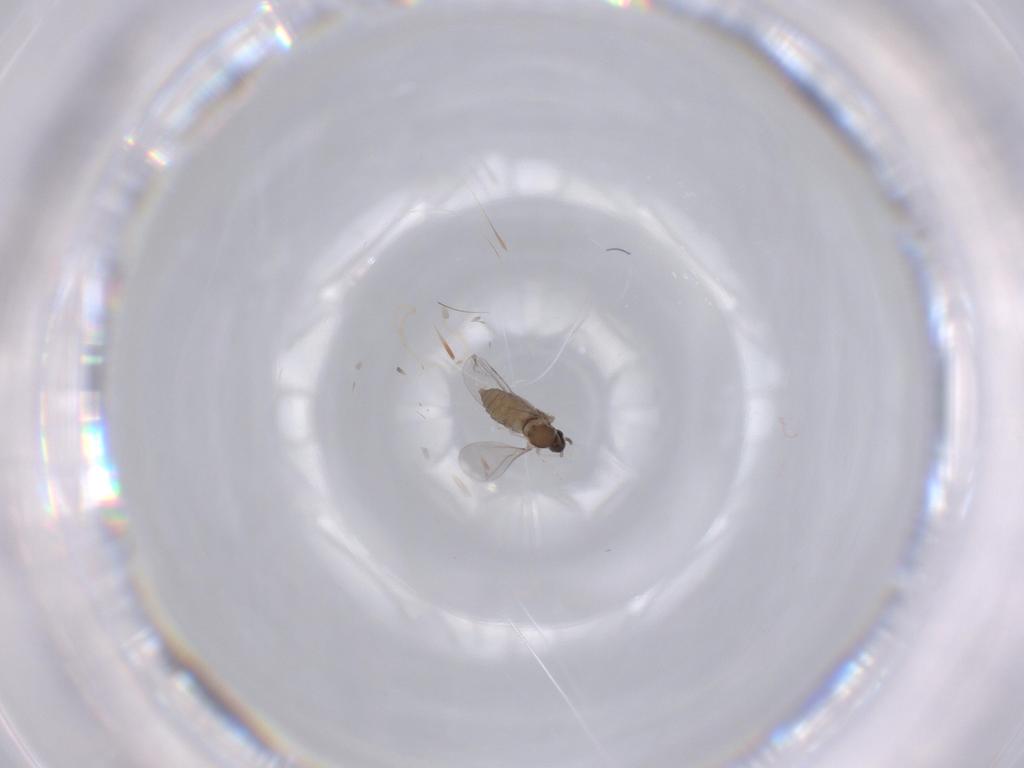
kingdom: Animalia
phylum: Arthropoda
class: Insecta
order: Diptera
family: Cecidomyiidae
